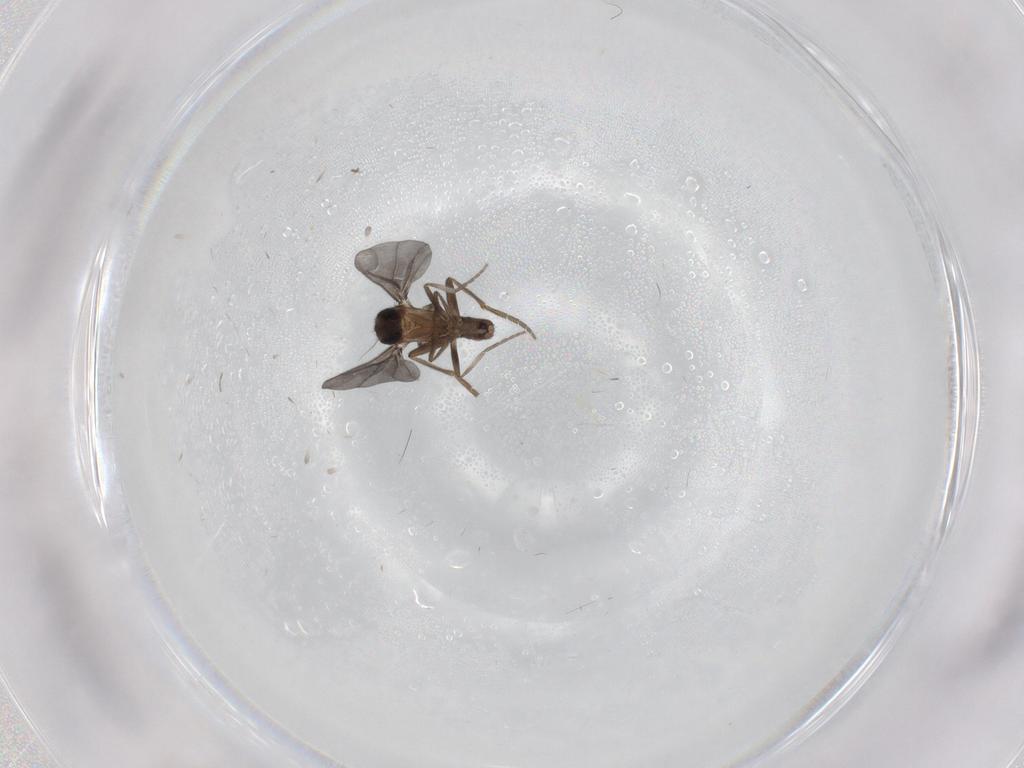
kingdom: Animalia
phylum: Arthropoda
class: Insecta
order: Diptera
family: Phoridae
